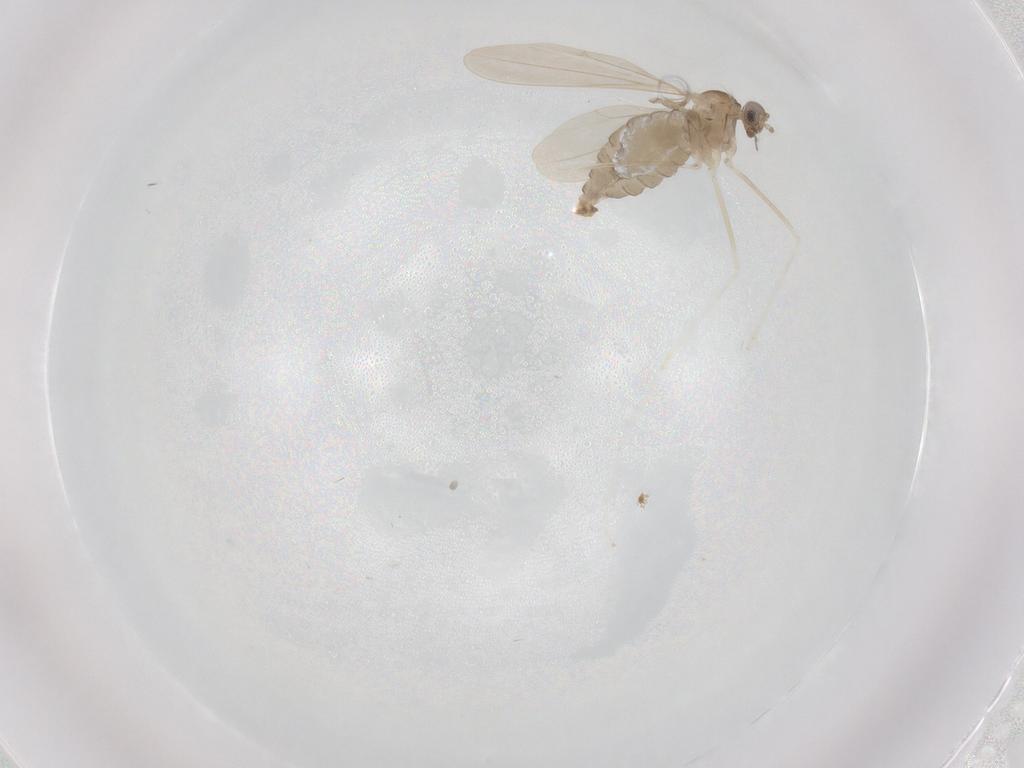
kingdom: Animalia
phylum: Arthropoda
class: Insecta
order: Diptera
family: Cecidomyiidae
